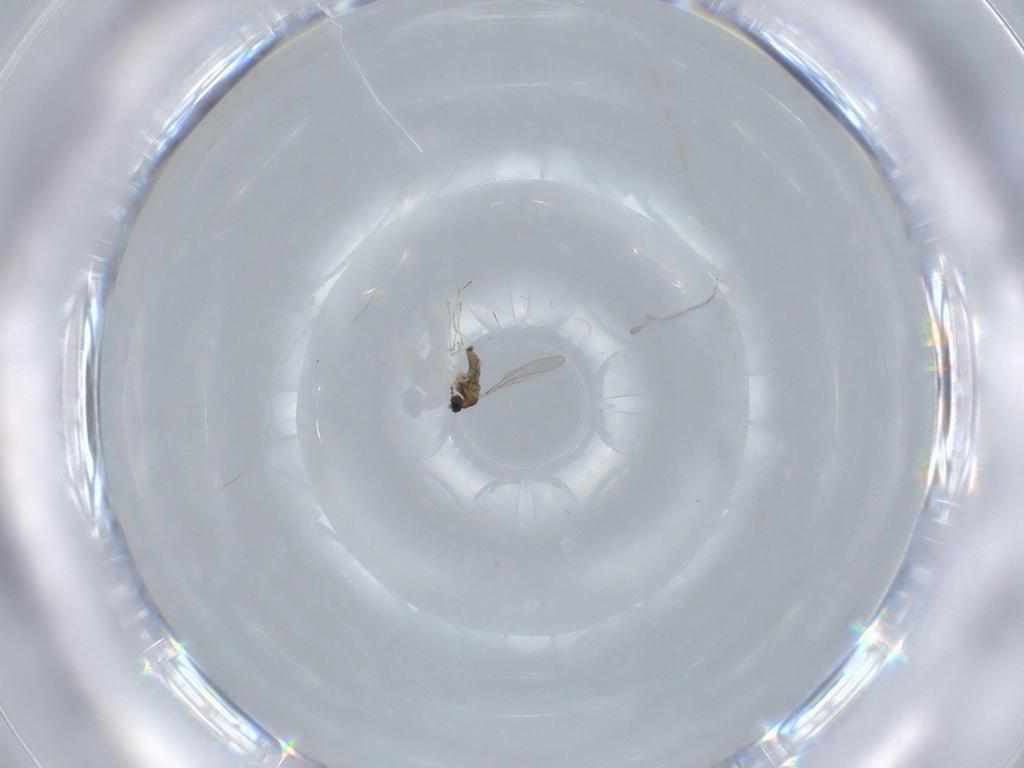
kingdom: Animalia
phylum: Arthropoda
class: Insecta
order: Diptera
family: Cecidomyiidae
